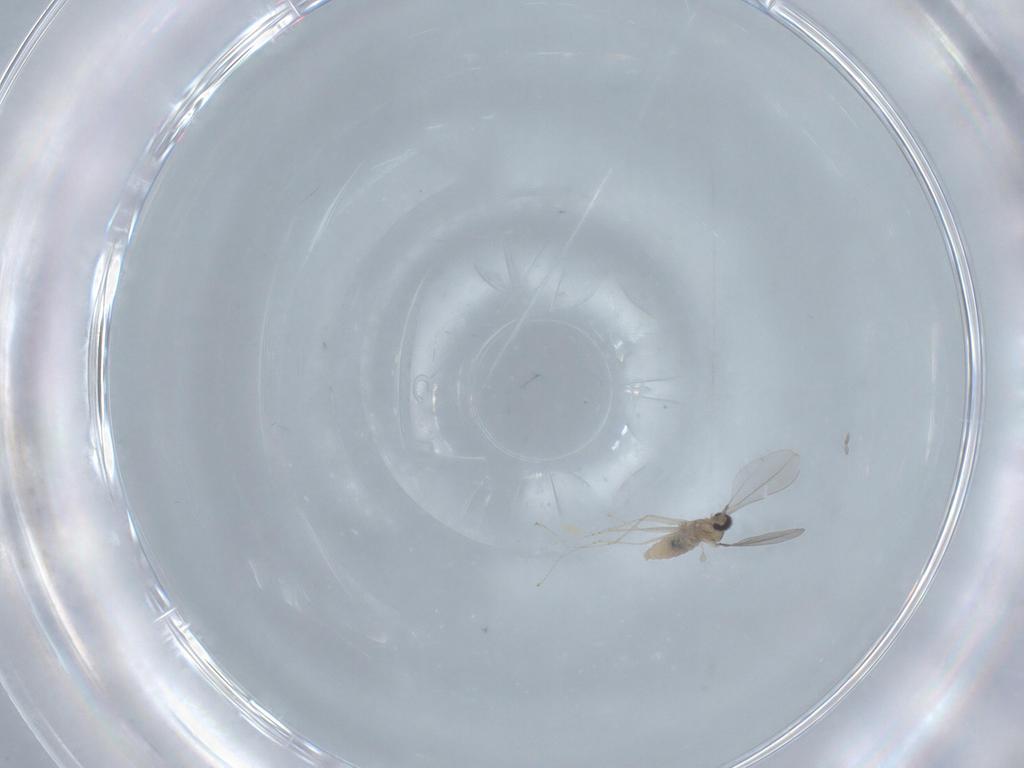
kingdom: Animalia
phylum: Arthropoda
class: Insecta
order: Diptera
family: Cecidomyiidae
